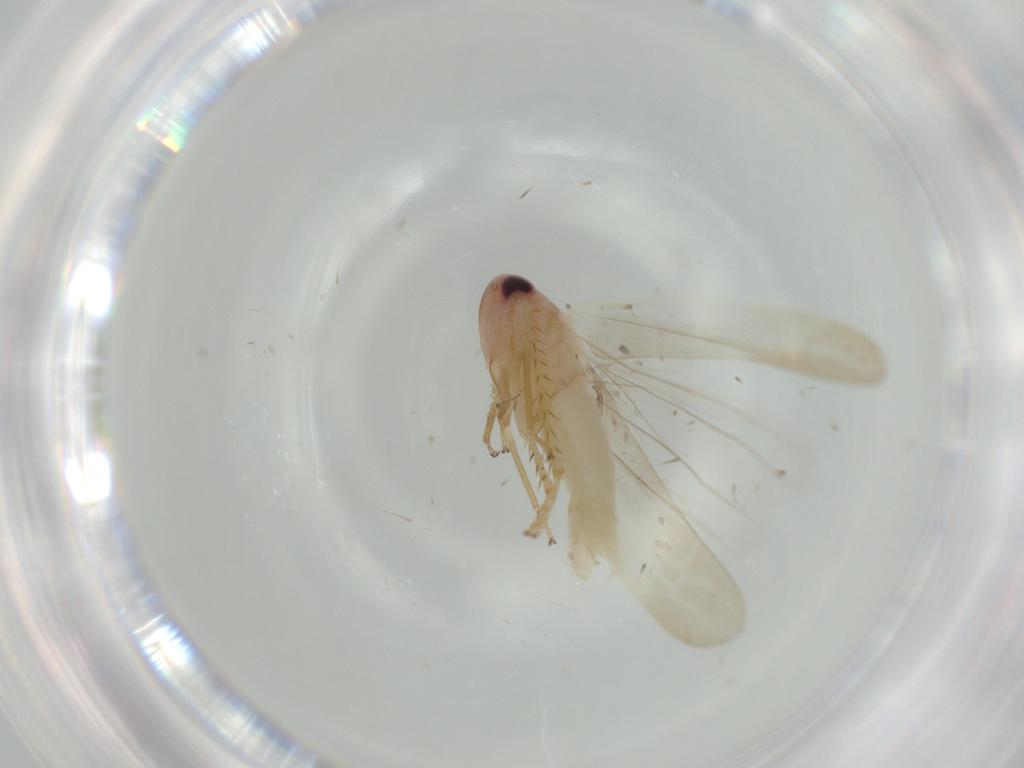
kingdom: Animalia
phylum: Arthropoda
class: Insecta
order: Hemiptera
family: Cicadellidae
